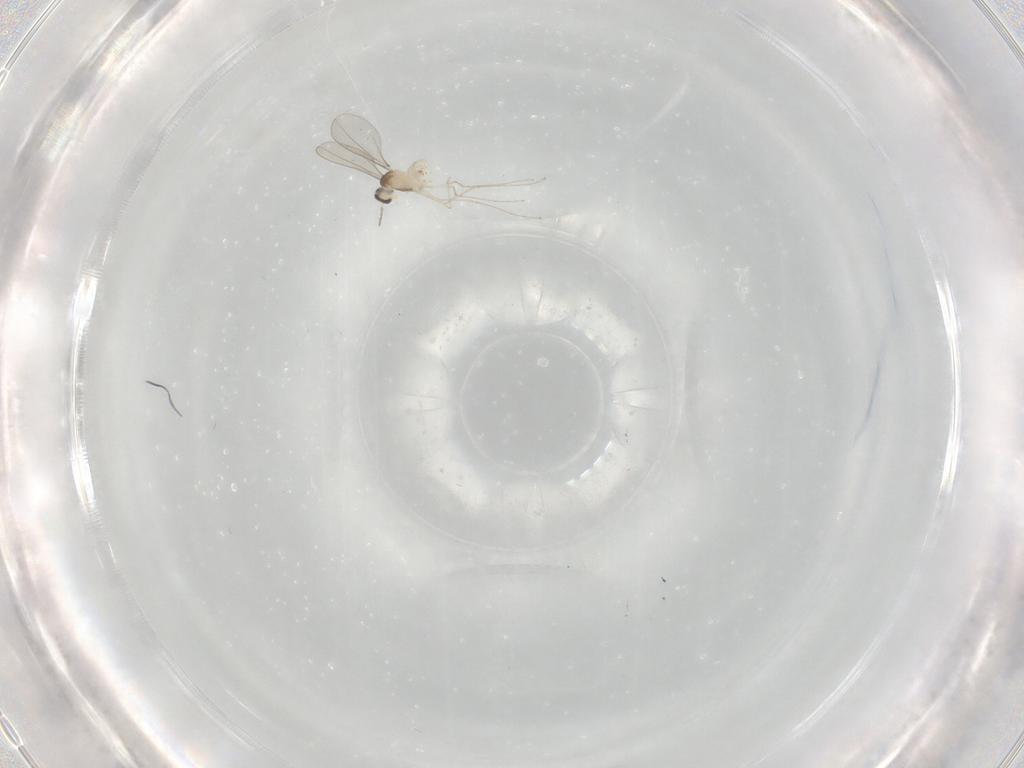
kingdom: Animalia
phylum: Arthropoda
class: Insecta
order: Diptera
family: Cecidomyiidae
